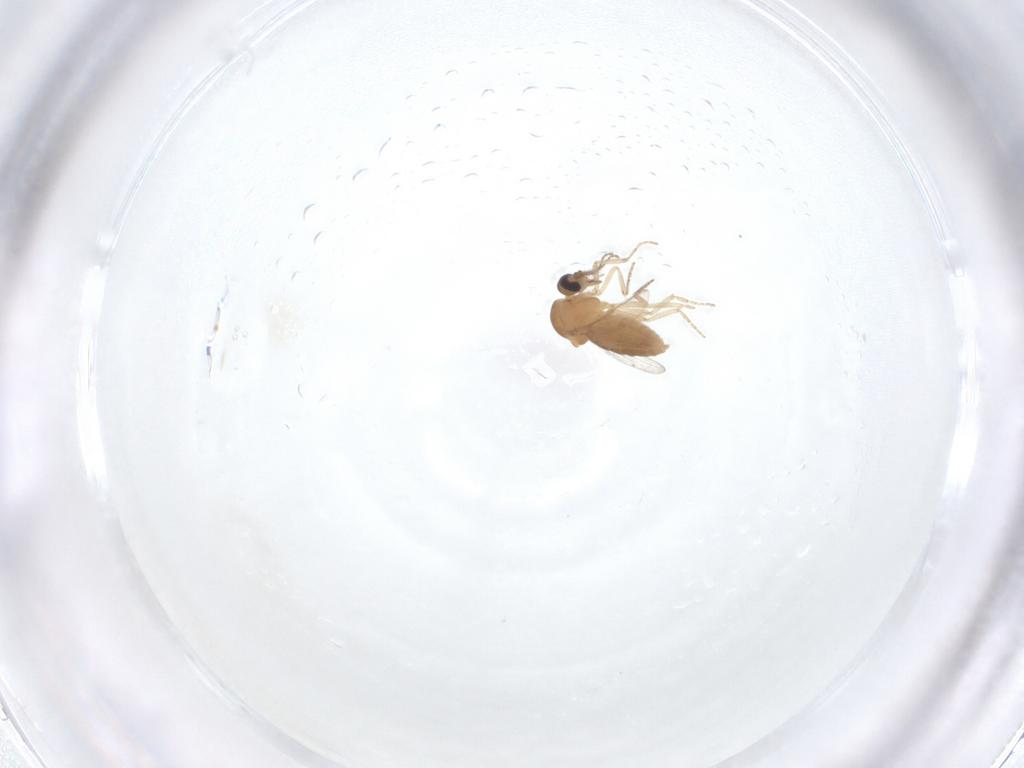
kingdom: Animalia
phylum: Arthropoda
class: Insecta
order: Diptera
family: Ceratopogonidae
